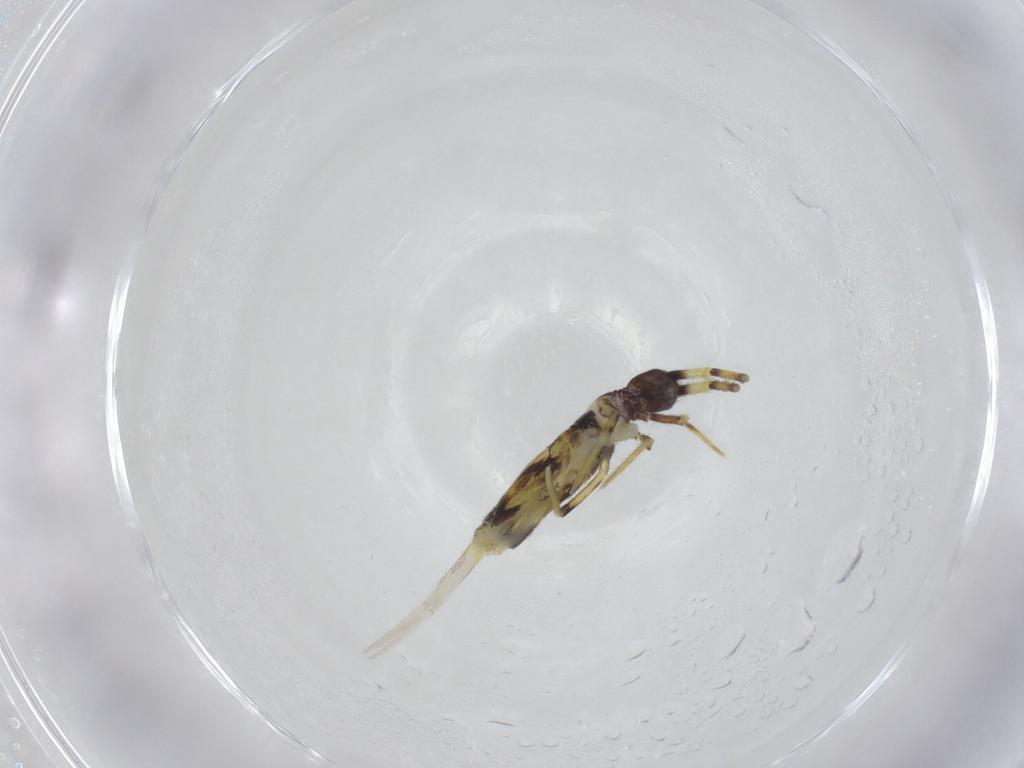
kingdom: Animalia
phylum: Arthropoda
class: Collembola
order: Entomobryomorpha
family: Entomobryidae
